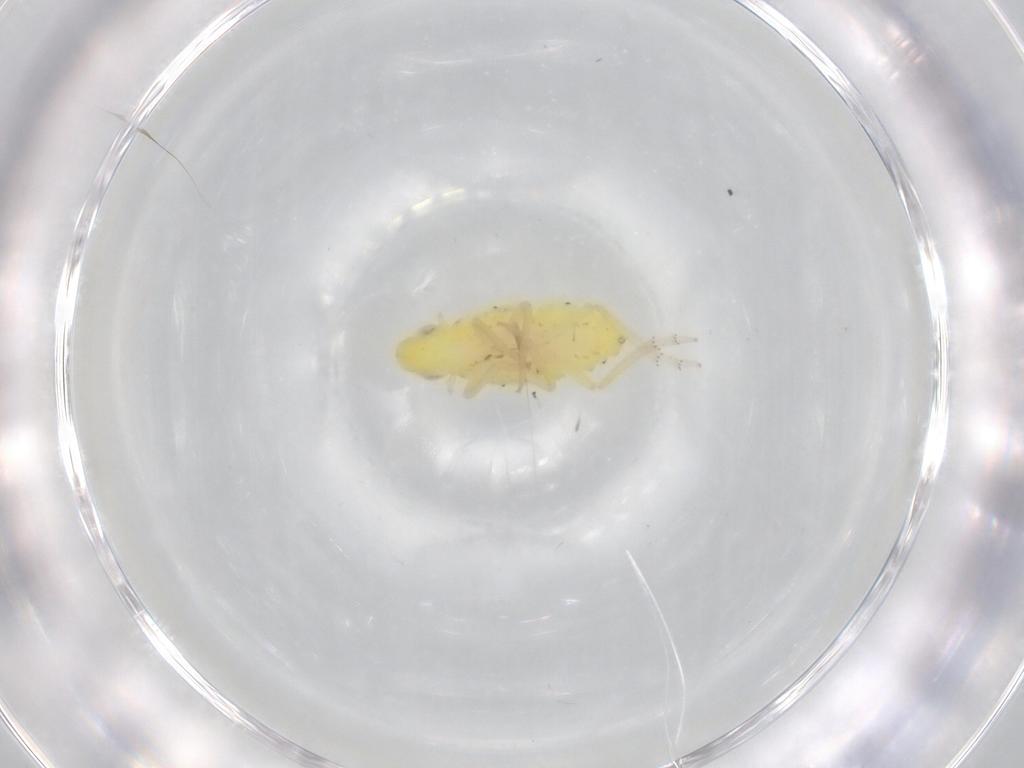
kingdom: Animalia
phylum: Arthropoda
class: Insecta
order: Hemiptera
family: Tropiduchidae
